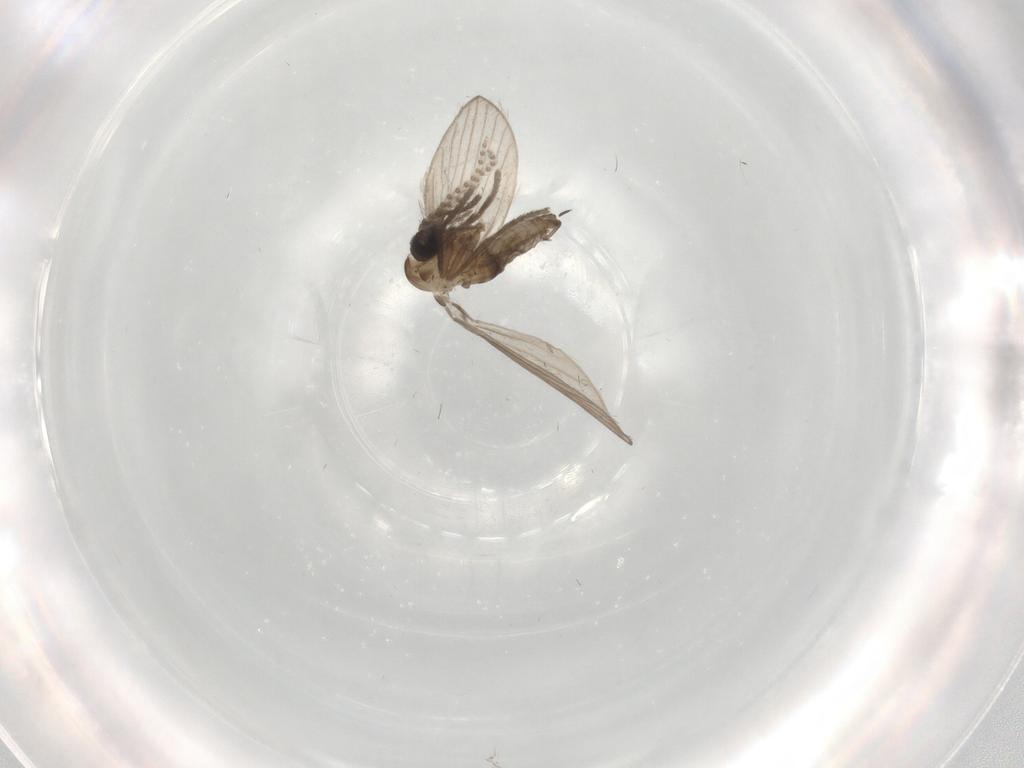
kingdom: Animalia
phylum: Arthropoda
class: Insecta
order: Diptera
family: Psychodidae
